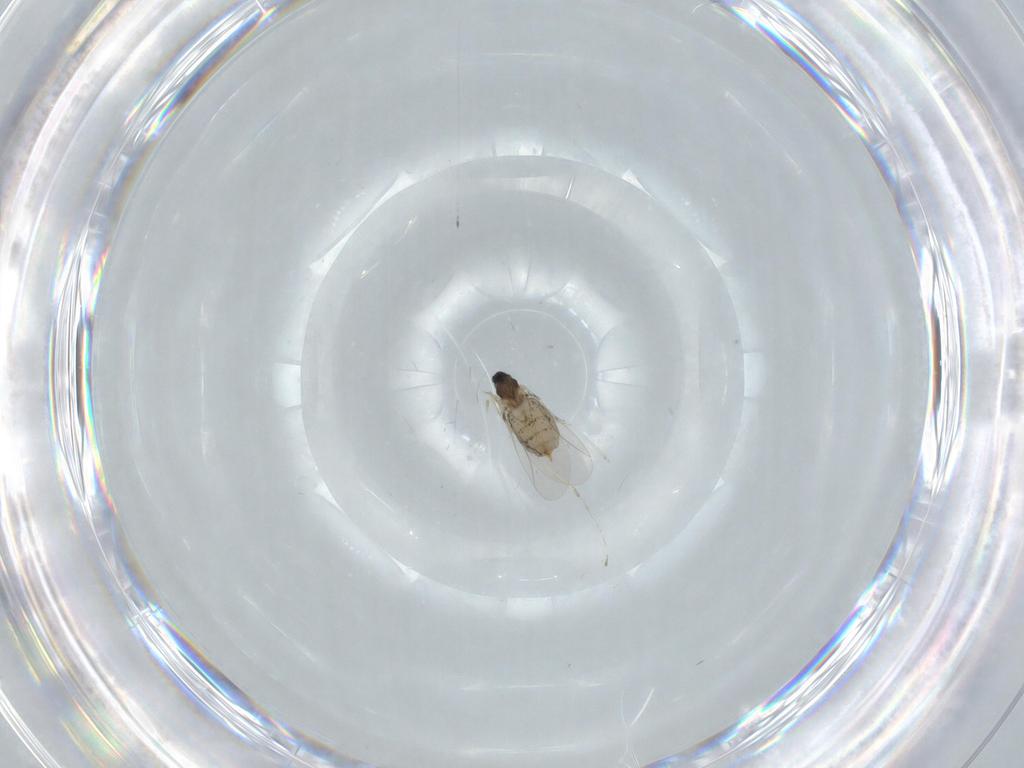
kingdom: Animalia
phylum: Arthropoda
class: Insecta
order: Diptera
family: Cecidomyiidae
